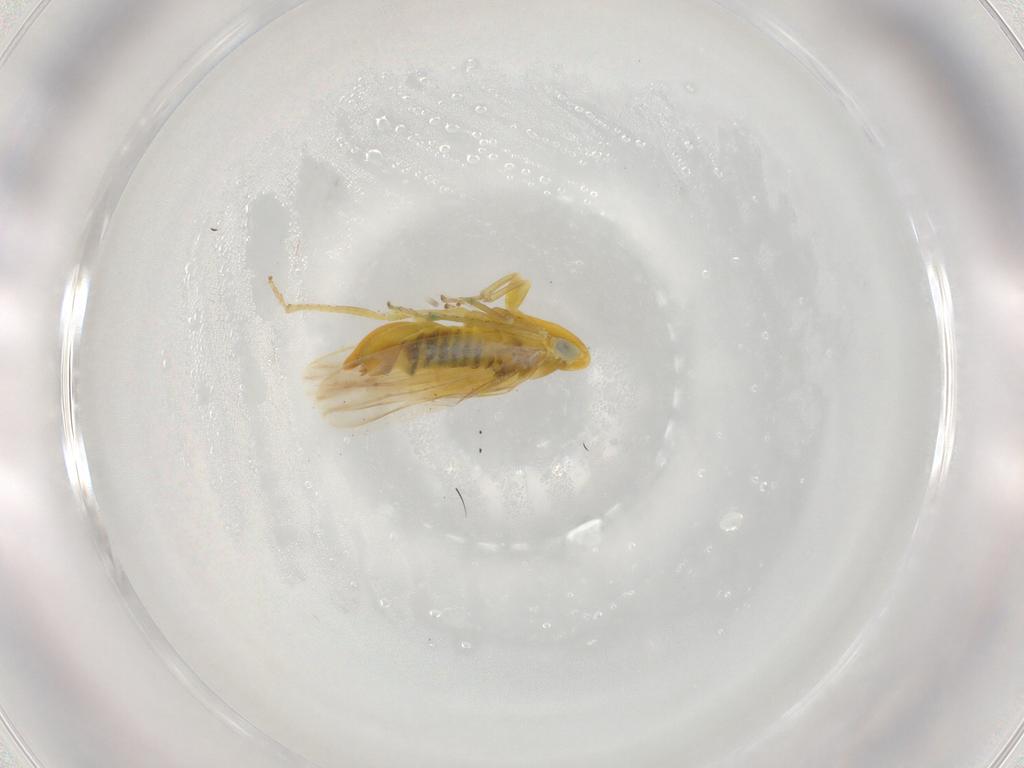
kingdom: Animalia
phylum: Arthropoda
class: Insecta
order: Hemiptera
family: Cicadellidae
